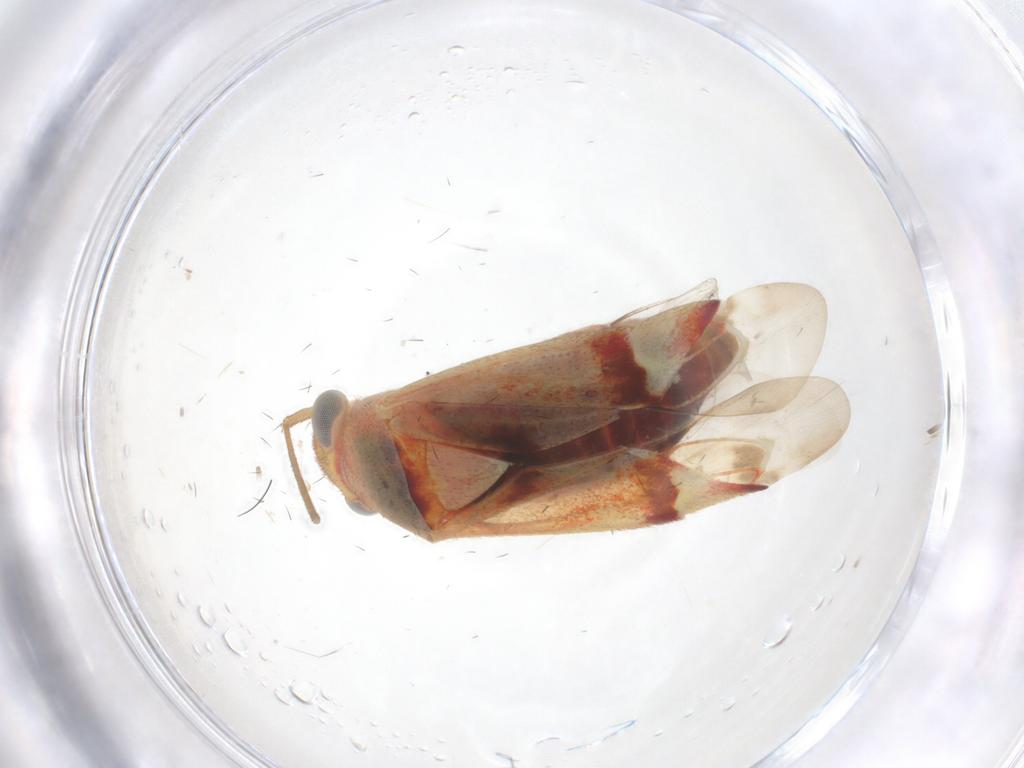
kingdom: Animalia
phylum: Arthropoda
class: Insecta
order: Hemiptera
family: Miridae
